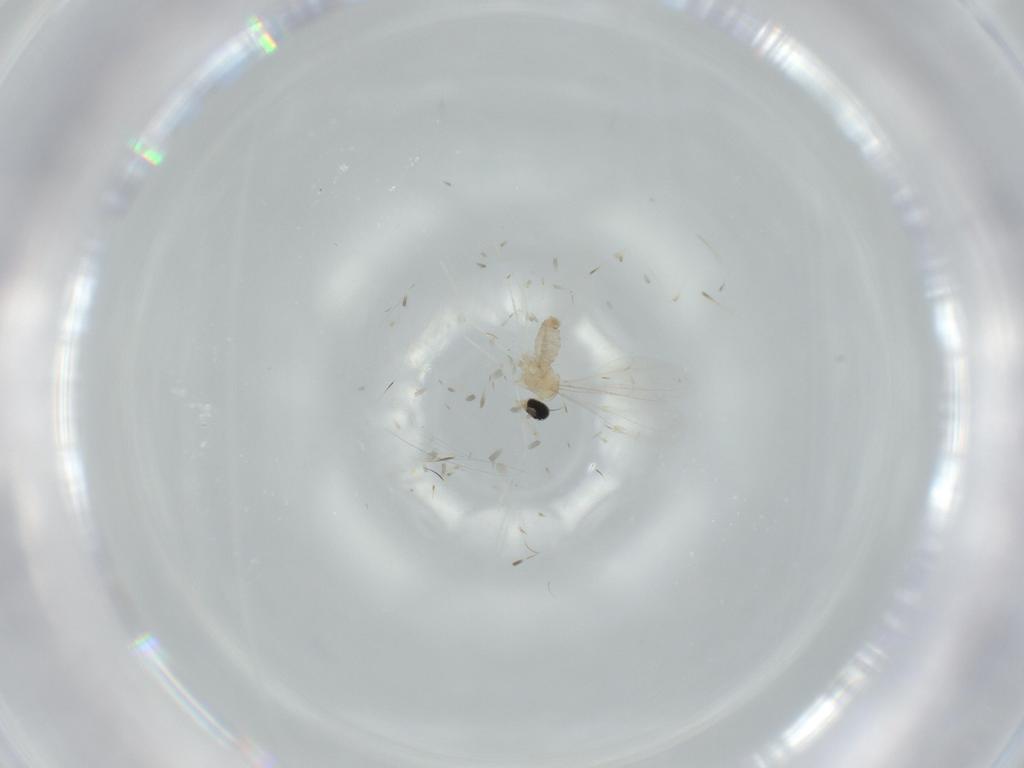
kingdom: Animalia
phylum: Arthropoda
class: Insecta
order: Diptera
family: Cecidomyiidae
